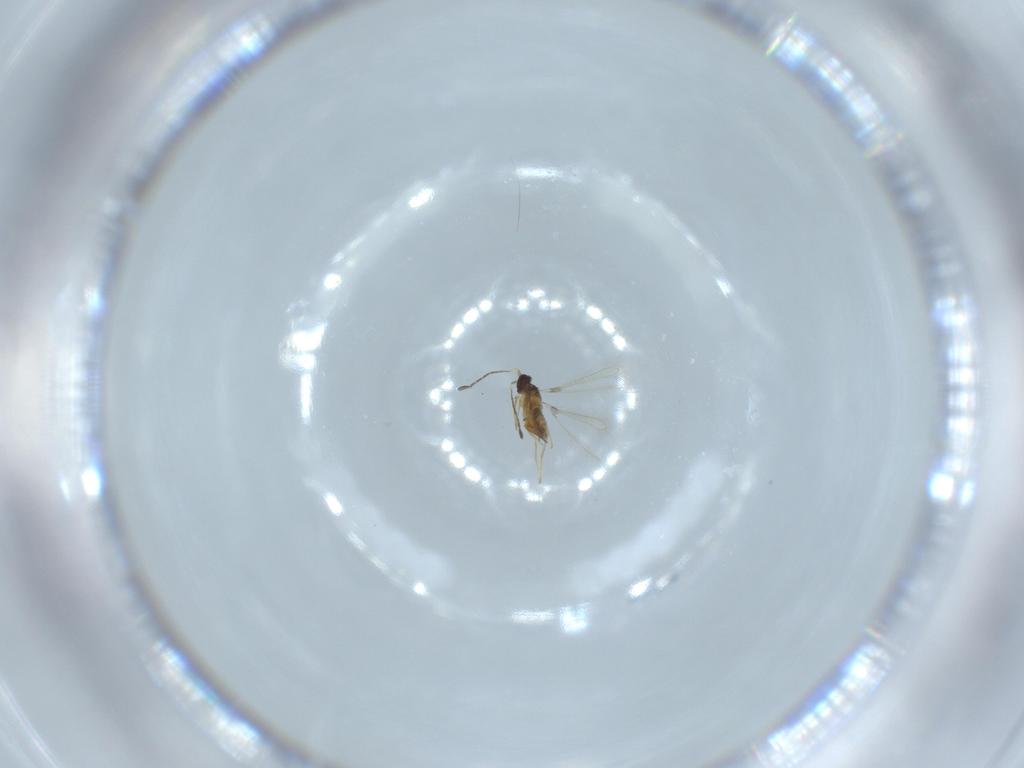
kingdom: Animalia
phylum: Arthropoda
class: Insecta
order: Hymenoptera
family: Mymaridae
